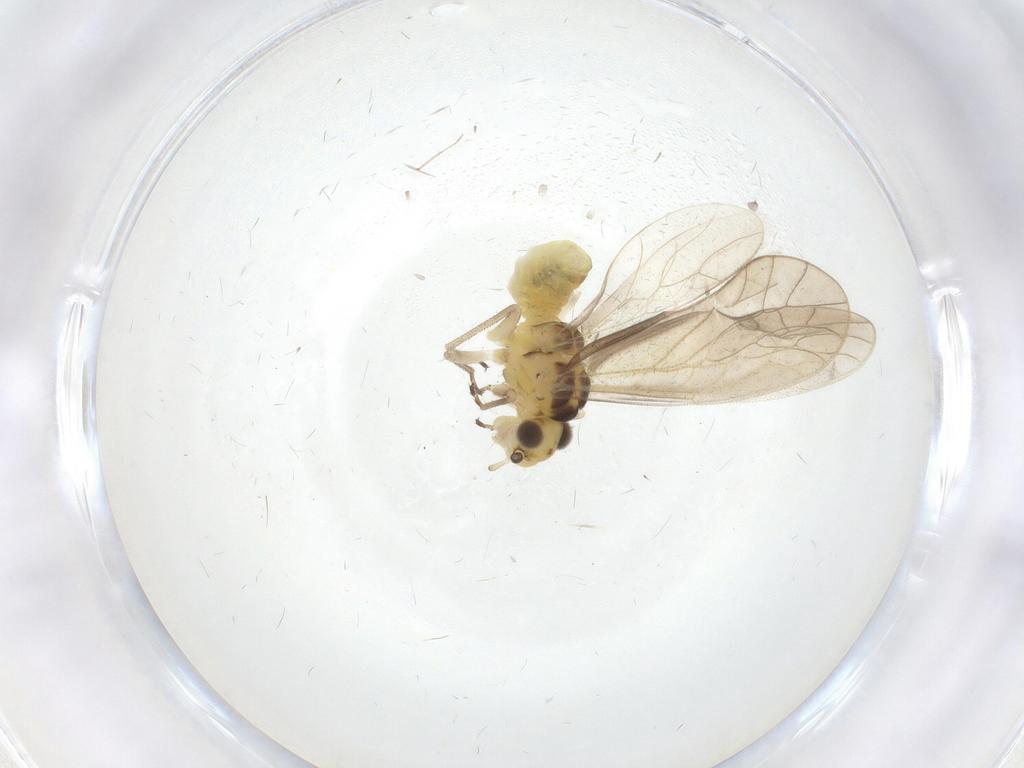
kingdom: Animalia
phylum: Arthropoda
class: Insecta
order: Psocodea
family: Caeciliusidae
